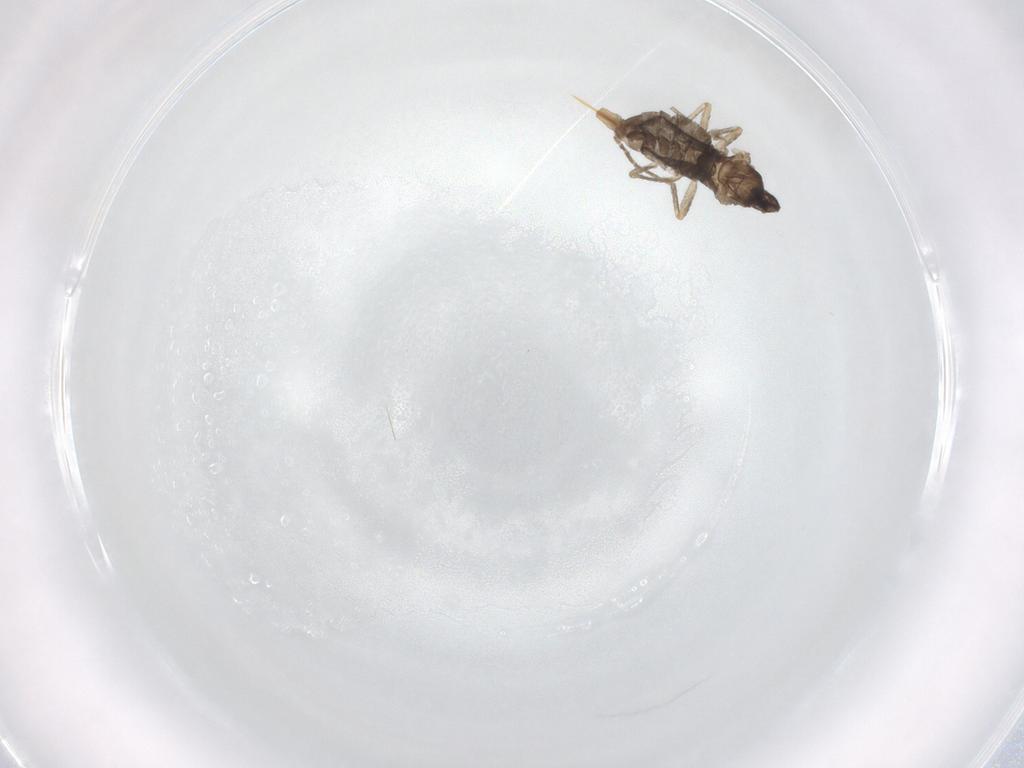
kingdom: Animalia
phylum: Arthropoda
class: Insecta
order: Diptera
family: Cecidomyiidae
